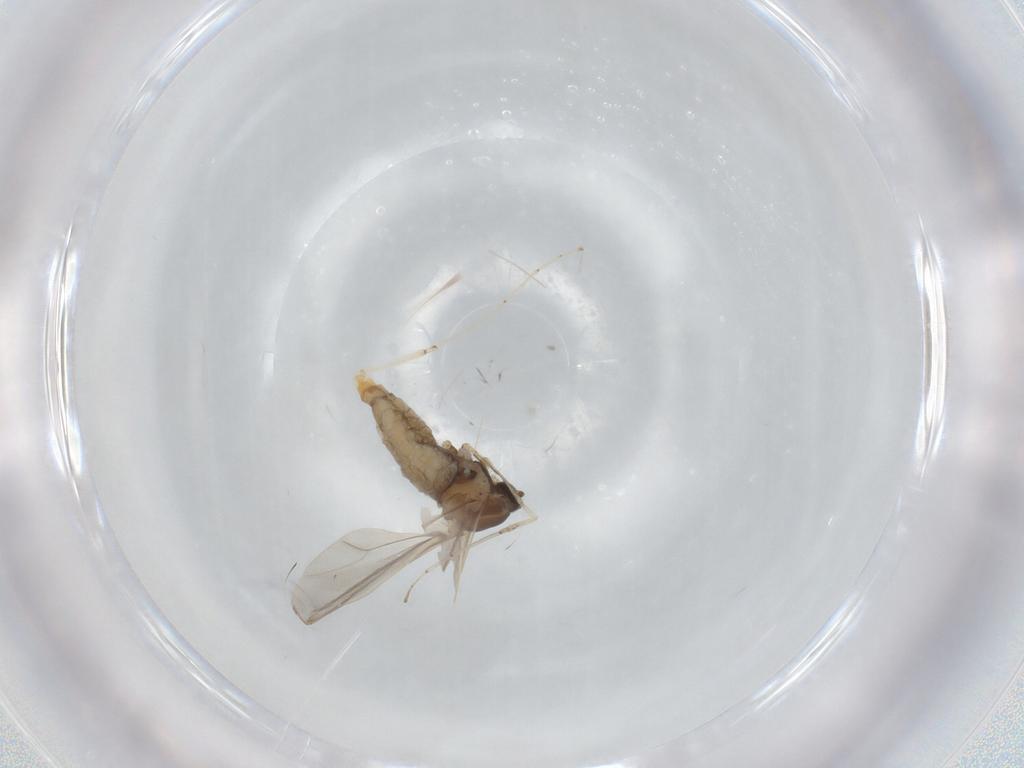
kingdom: Animalia
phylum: Arthropoda
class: Insecta
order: Diptera
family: Cecidomyiidae
